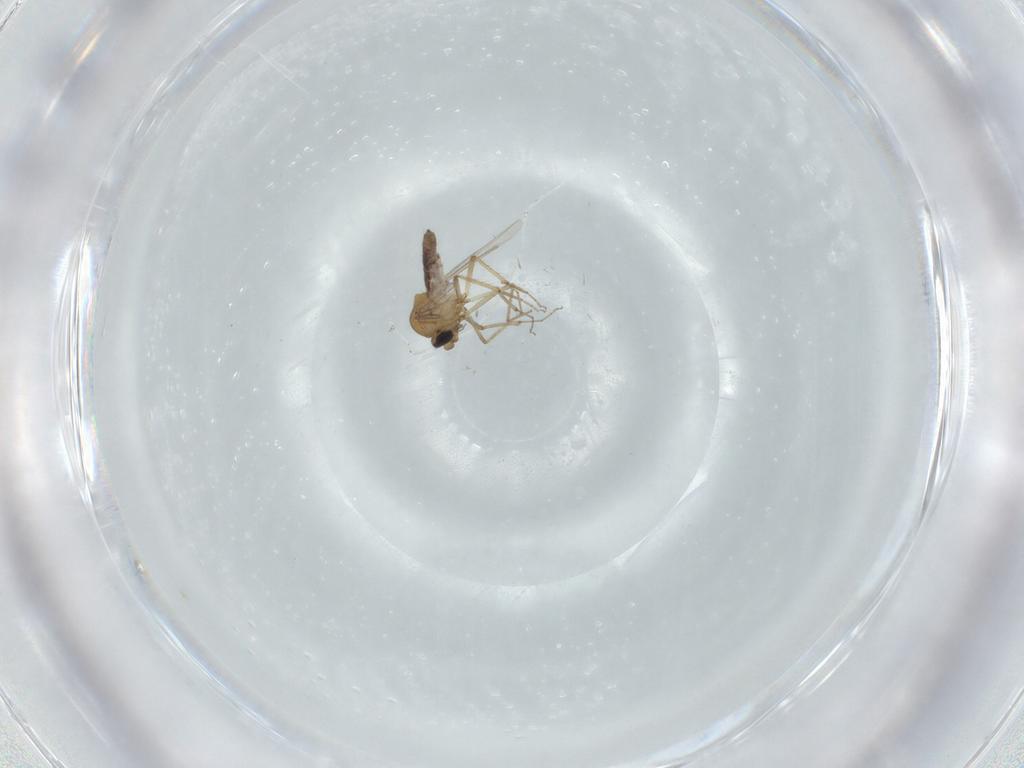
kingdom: Animalia
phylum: Arthropoda
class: Insecta
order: Diptera
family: Ceratopogonidae
